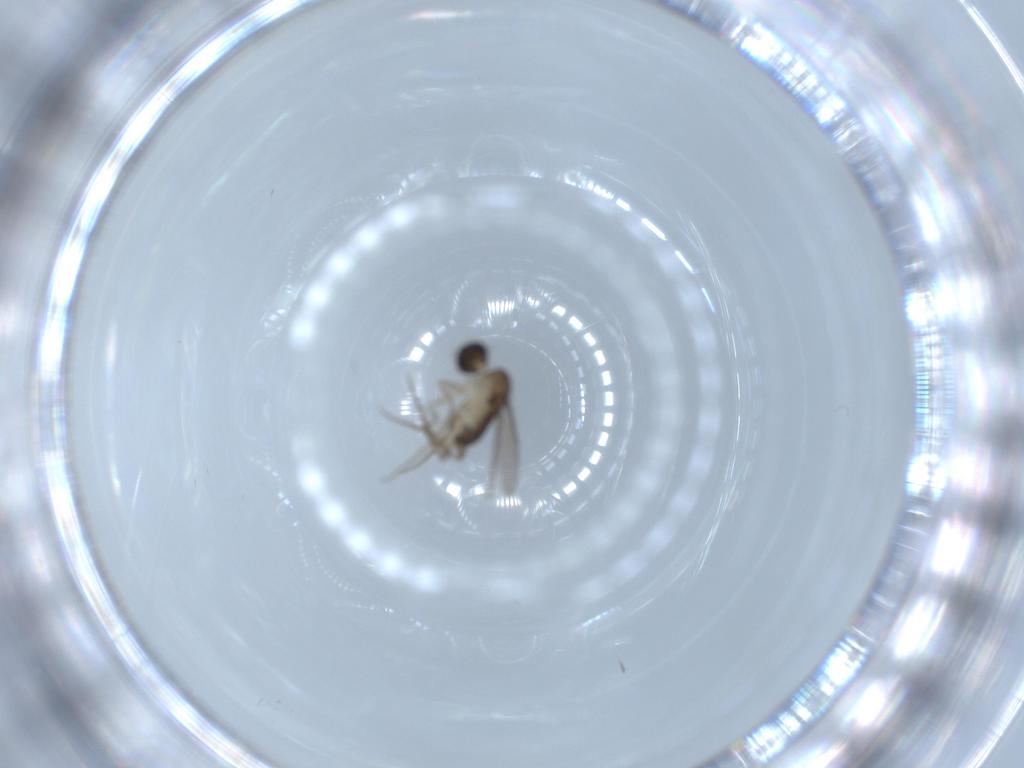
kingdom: Animalia
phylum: Arthropoda
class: Insecta
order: Diptera
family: Phoridae
